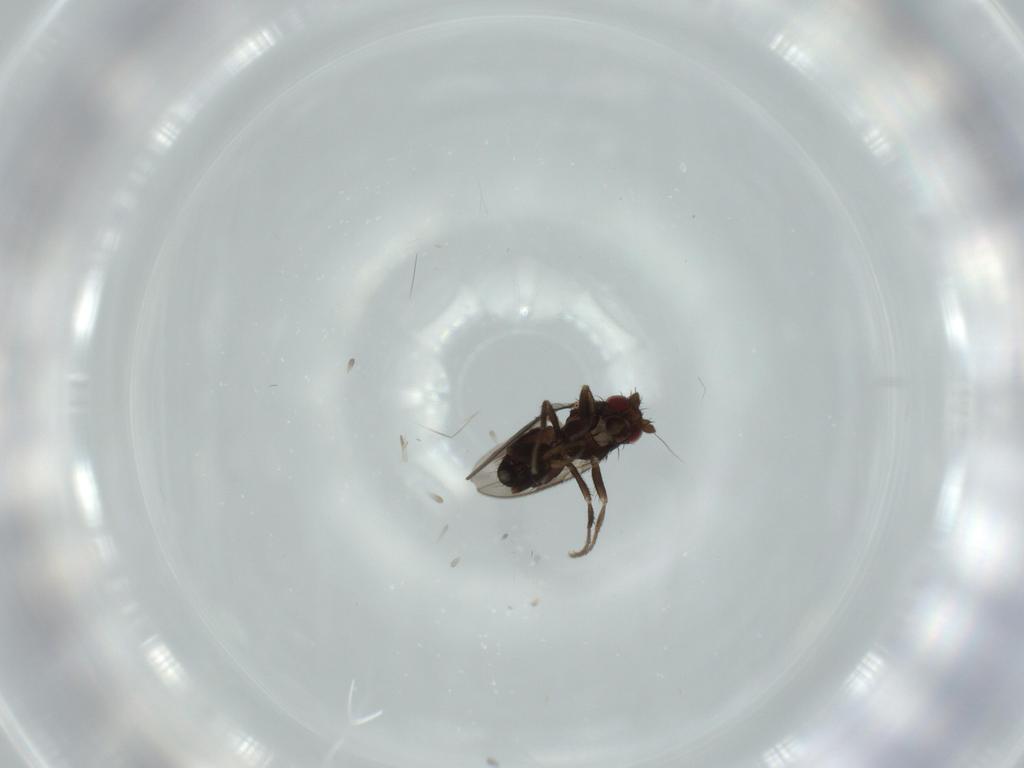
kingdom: Animalia
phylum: Arthropoda
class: Insecta
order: Diptera
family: Sphaeroceridae
